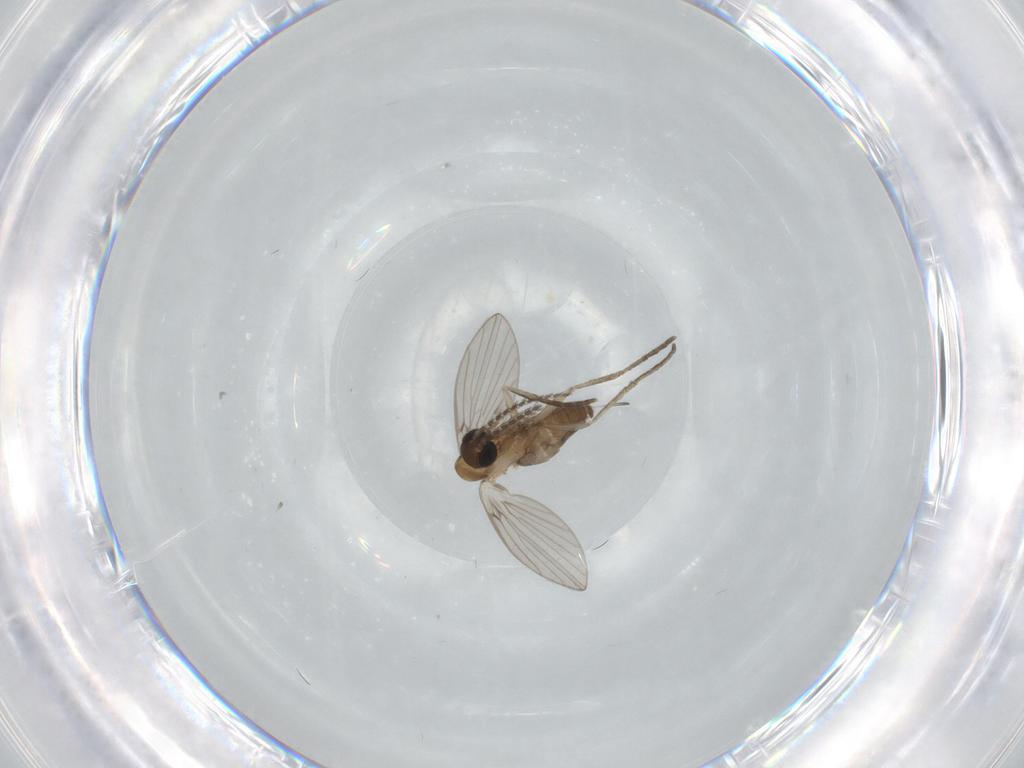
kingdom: Animalia
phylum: Arthropoda
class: Insecta
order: Diptera
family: Psychodidae
